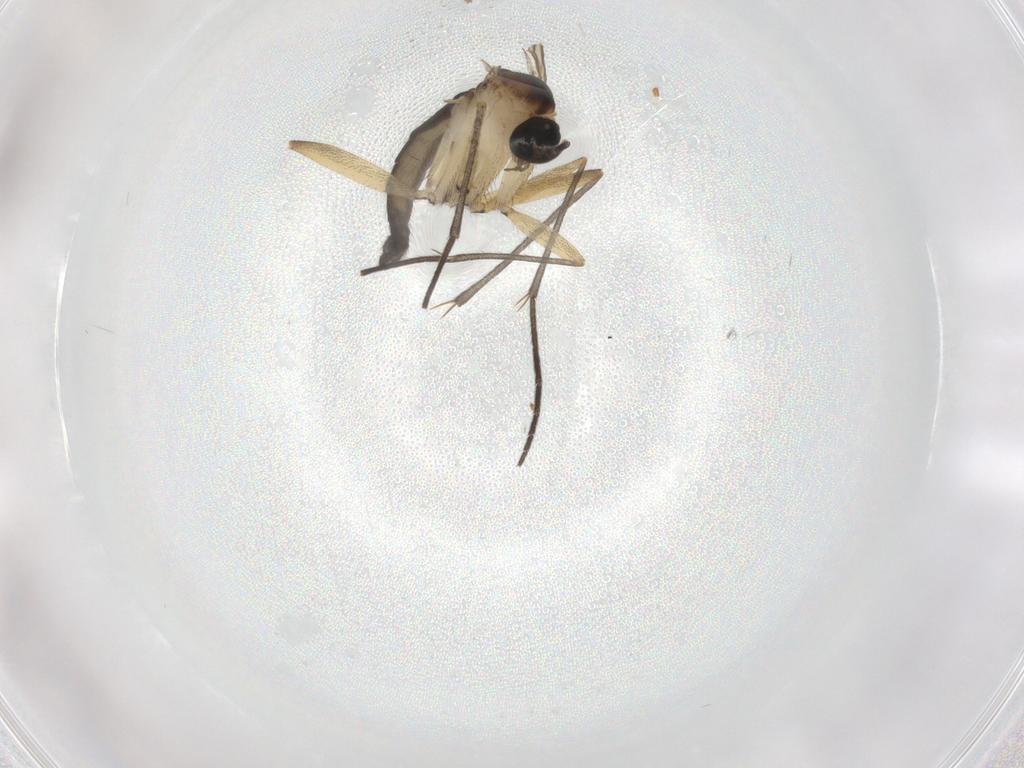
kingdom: Animalia
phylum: Arthropoda
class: Insecta
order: Diptera
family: Sciaridae
